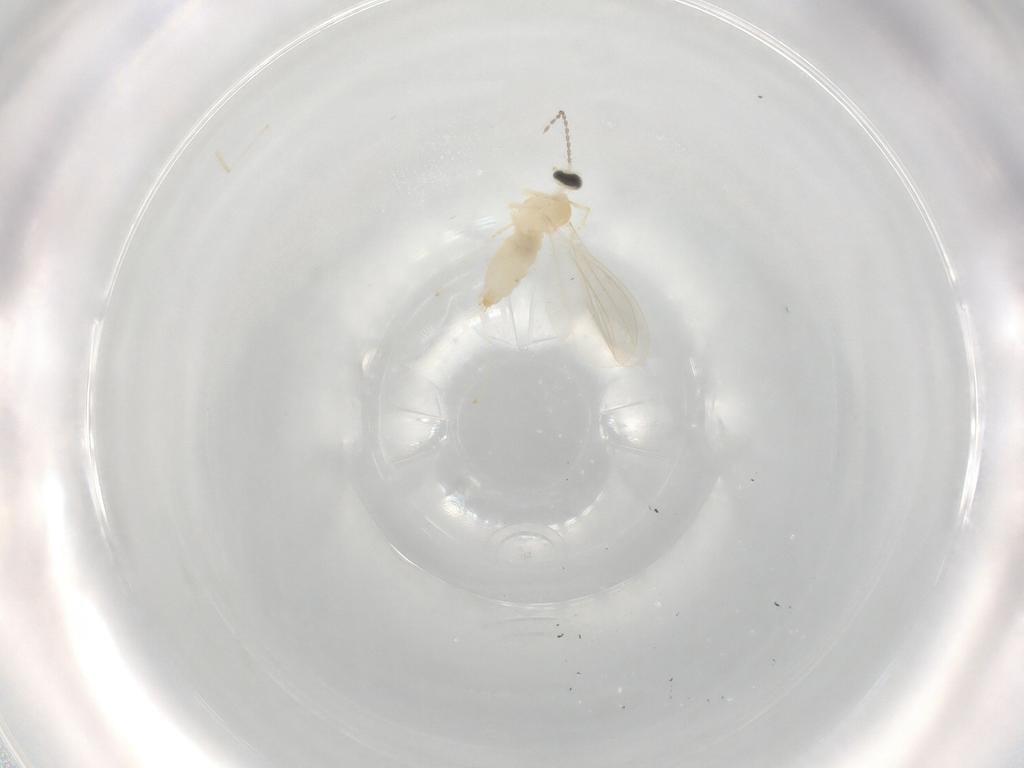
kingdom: Animalia
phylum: Arthropoda
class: Insecta
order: Diptera
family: Cecidomyiidae
